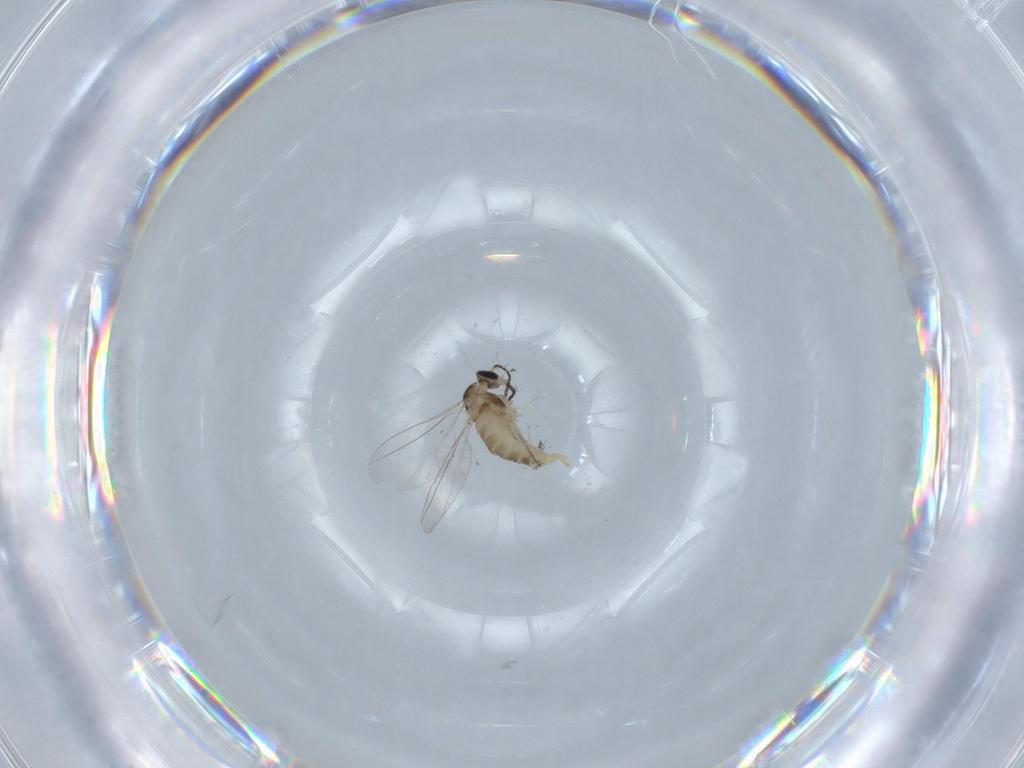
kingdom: Animalia
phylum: Arthropoda
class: Insecta
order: Diptera
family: Cecidomyiidae
